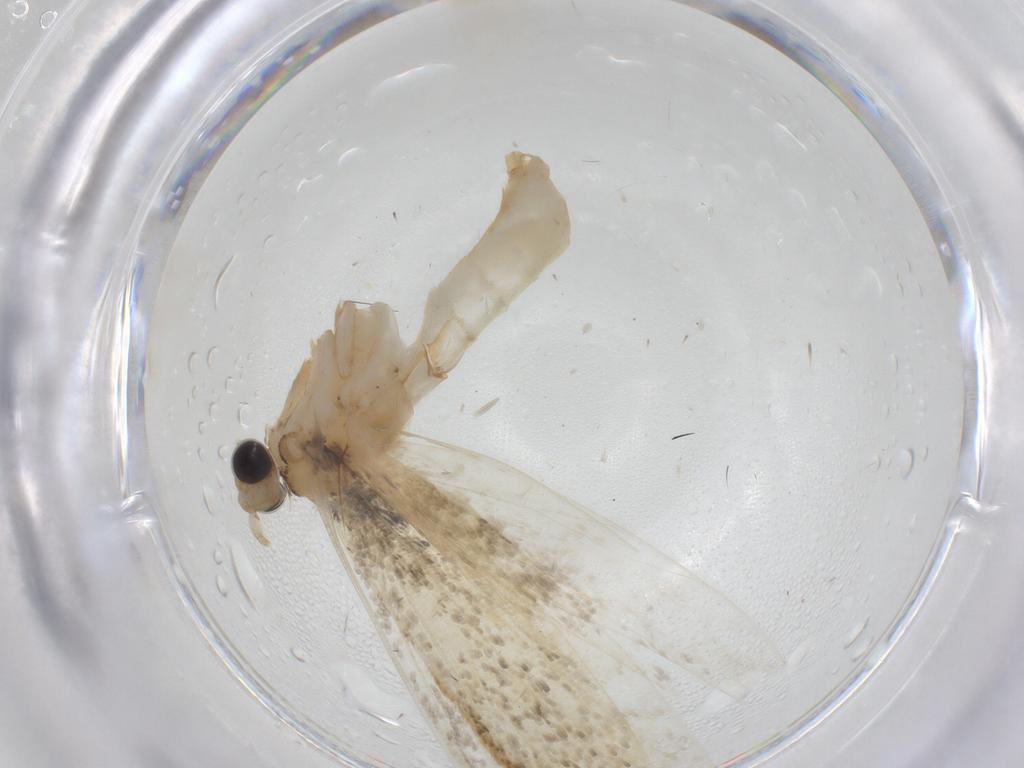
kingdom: Animalia
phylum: Arthropoda
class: Insecta
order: Lepidoptera
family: Tineidae
